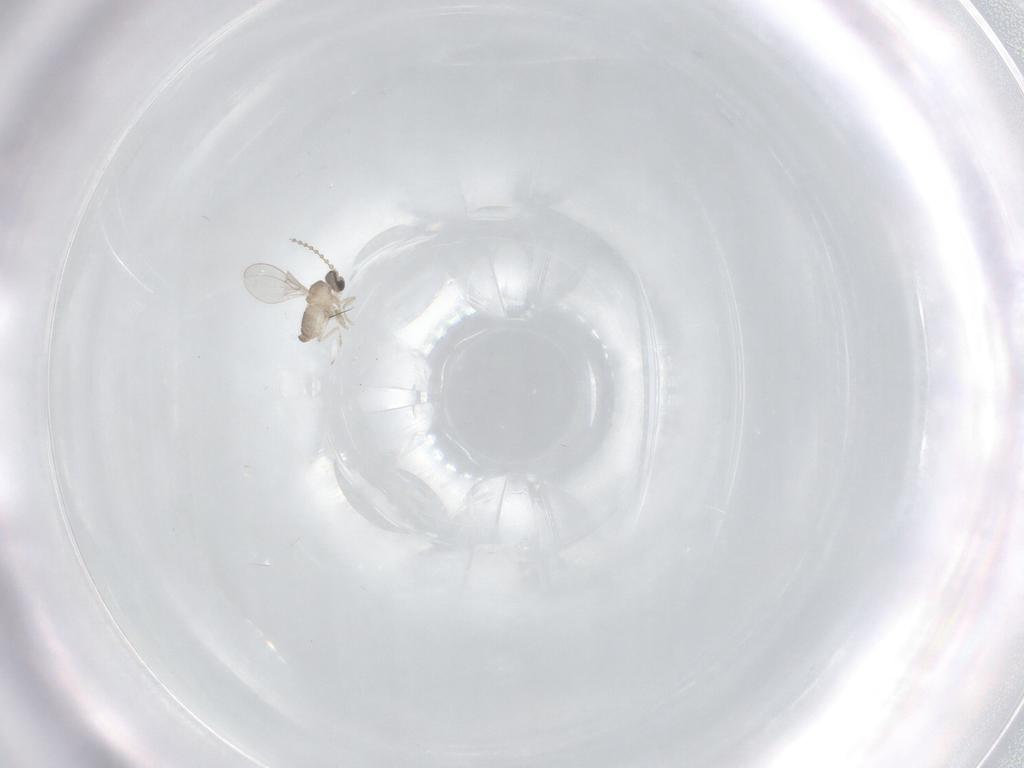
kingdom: Animalia
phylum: Arthropoda
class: Insecta
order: Diptera
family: Cecidomyiidae
